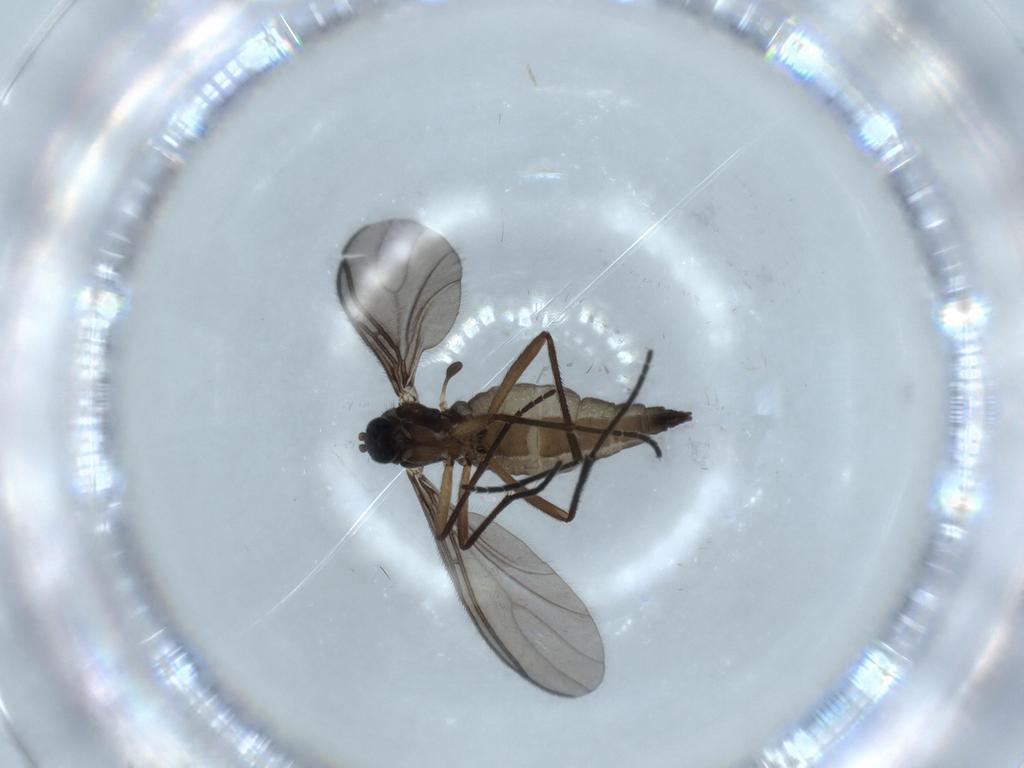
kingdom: Animalia
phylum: Arthropoda
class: Insecta
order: Diptera
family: Sciaridae
